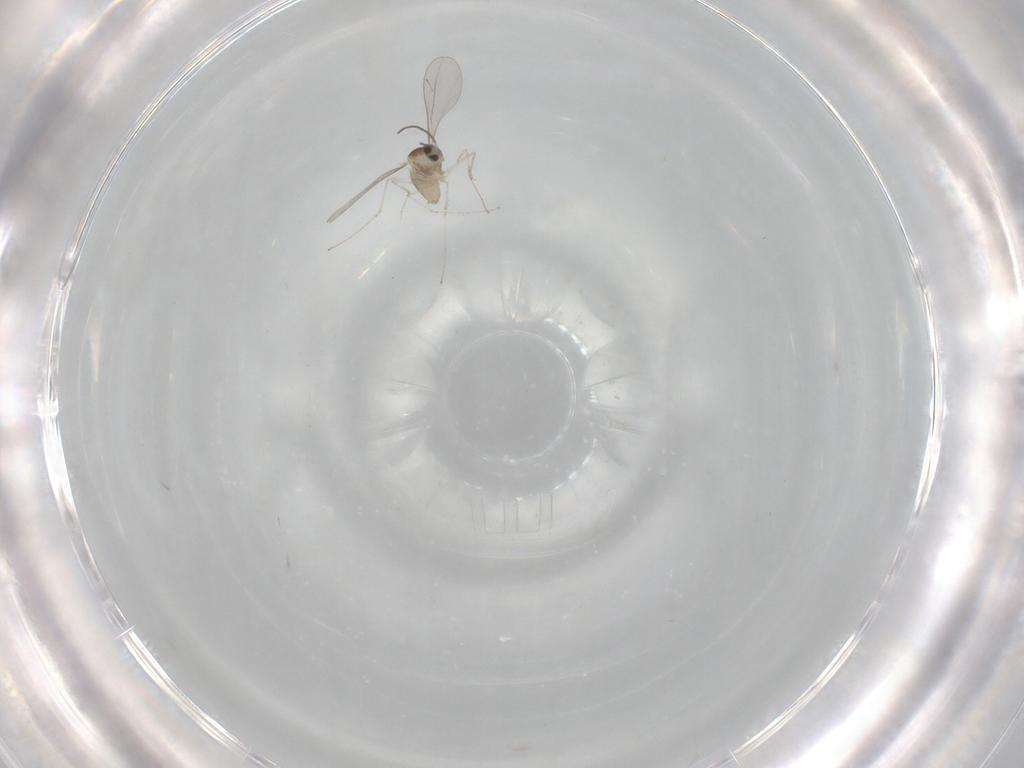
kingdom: Animalia
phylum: Arthropoda
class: Insecta
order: Diptera
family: Cecidomyiidae
